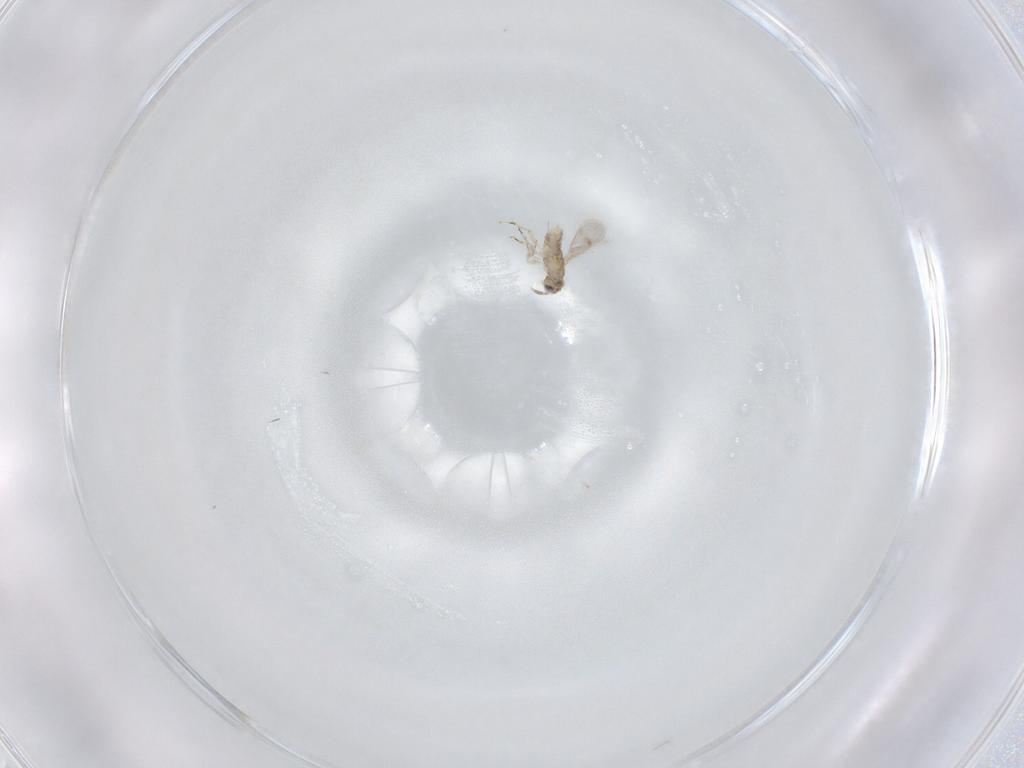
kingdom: Animalia
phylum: Arthropoda
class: Insecta
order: Hymenoptera
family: Aphelinidae
